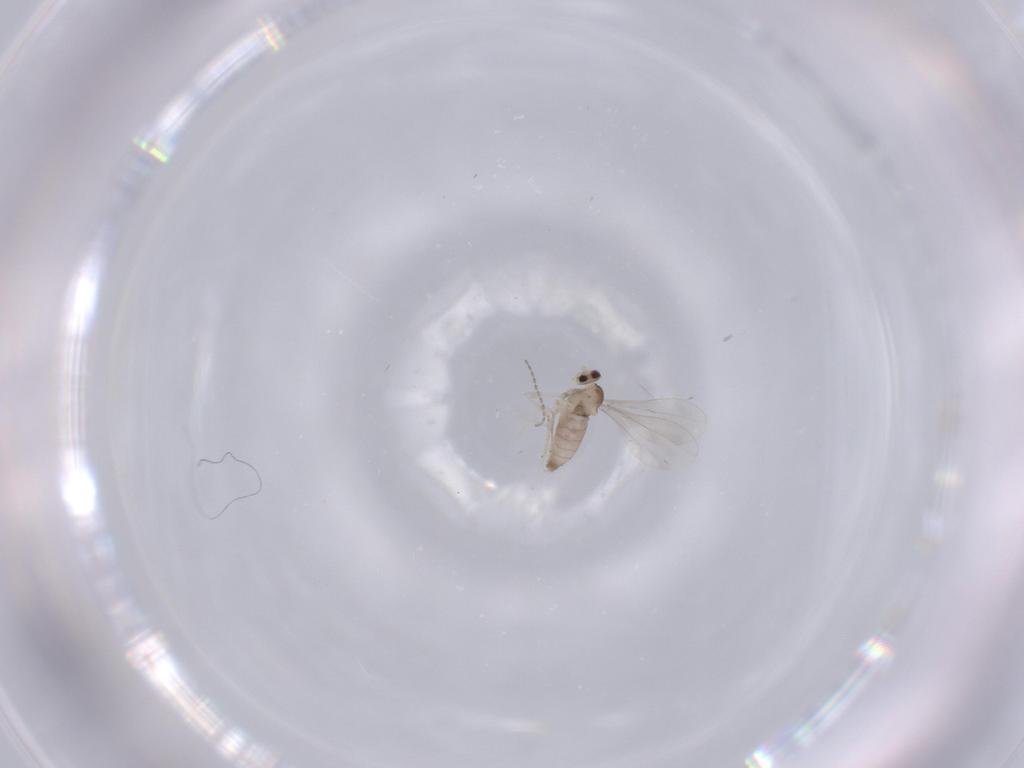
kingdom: Animalia
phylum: Arthropoda
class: Insecta
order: Diptera
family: Cecidomyiidae
